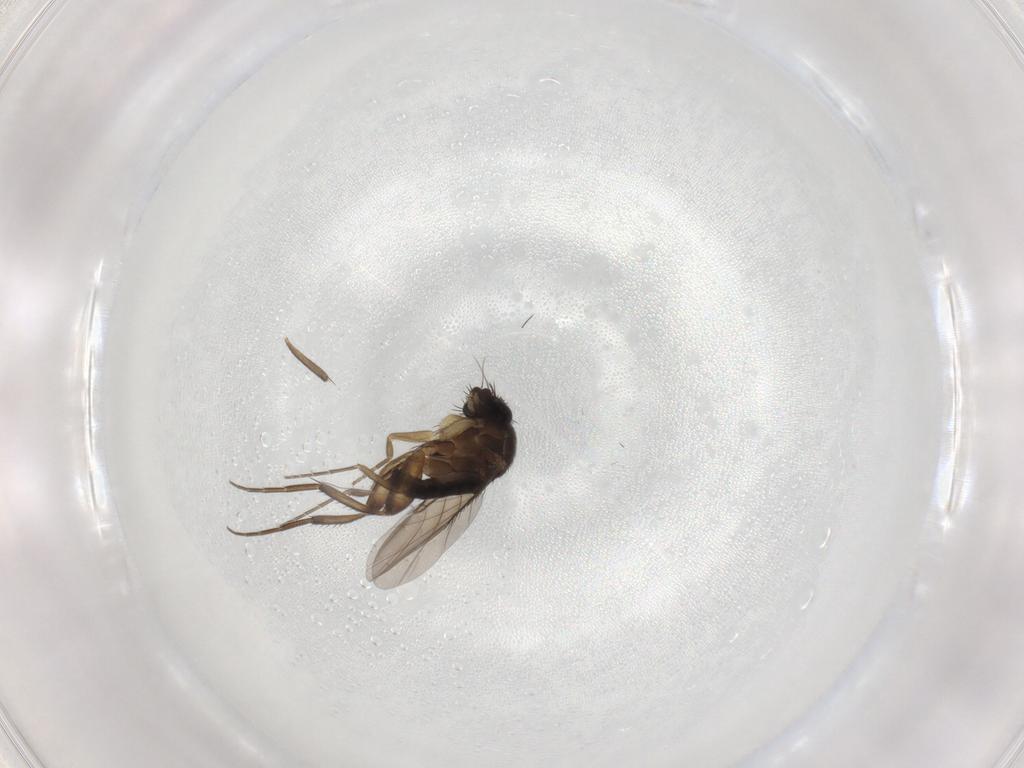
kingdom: Animalia
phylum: Arthropoda
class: Insecta
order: Diptera
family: Phoridae
